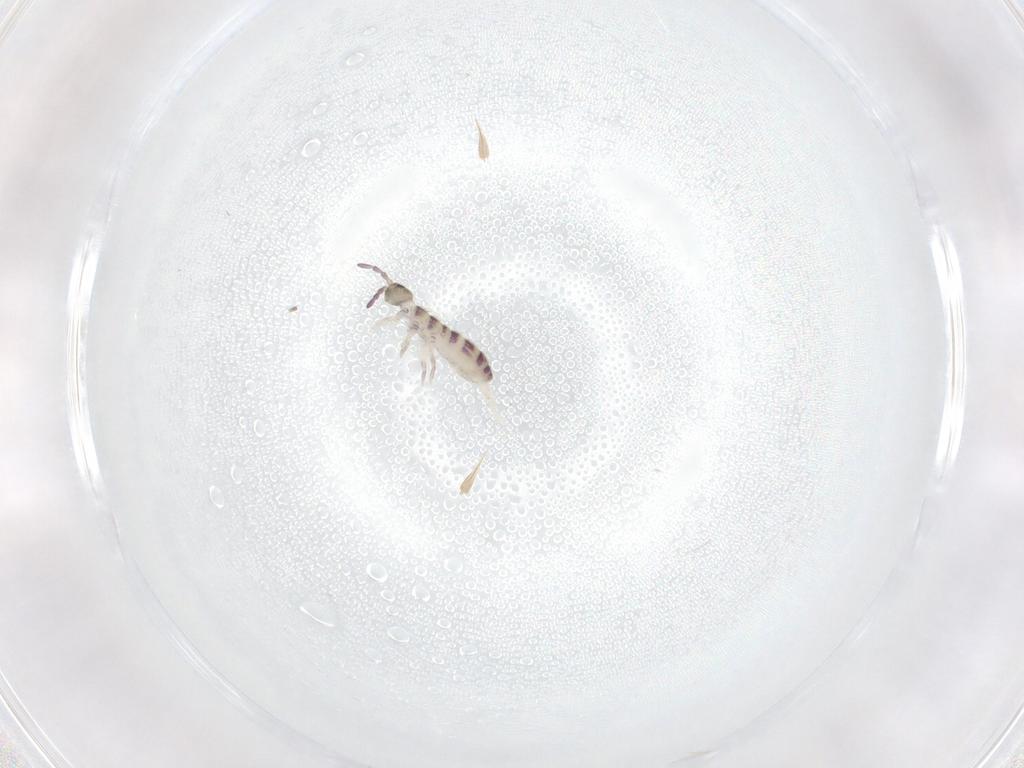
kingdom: Animalia
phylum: Arthropoda
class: Collembola
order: Entomobryomorpha
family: Isotomidae
